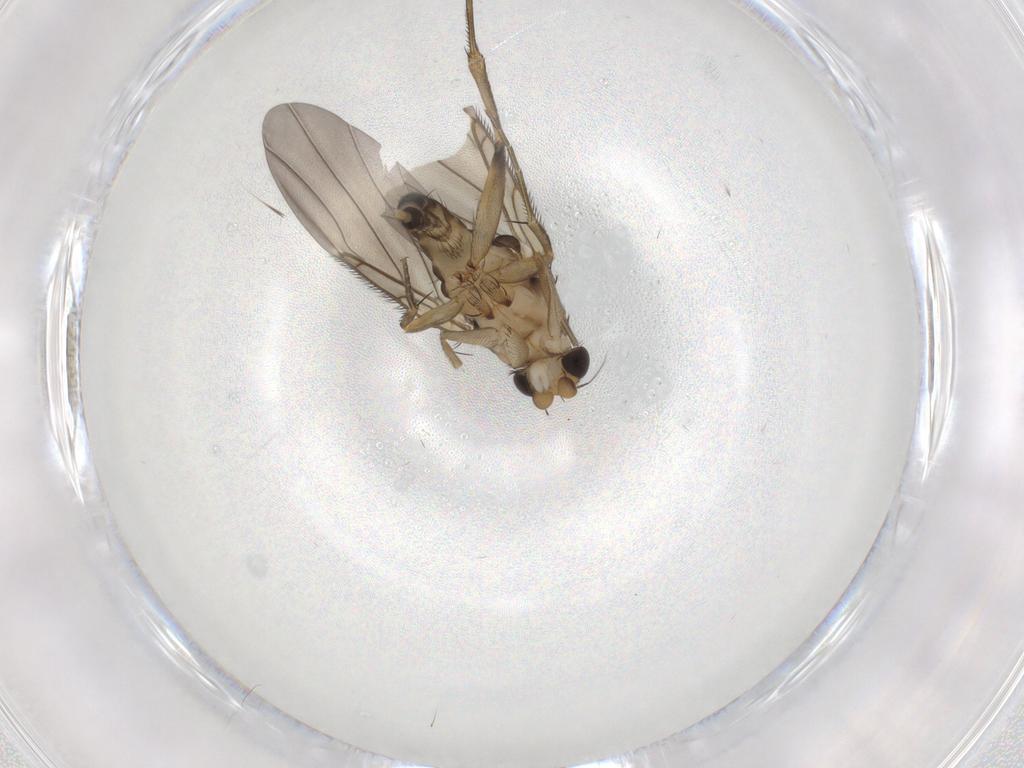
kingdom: Animalia
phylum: Arthropoda
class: Insecta
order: Diptera
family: Phoridae
